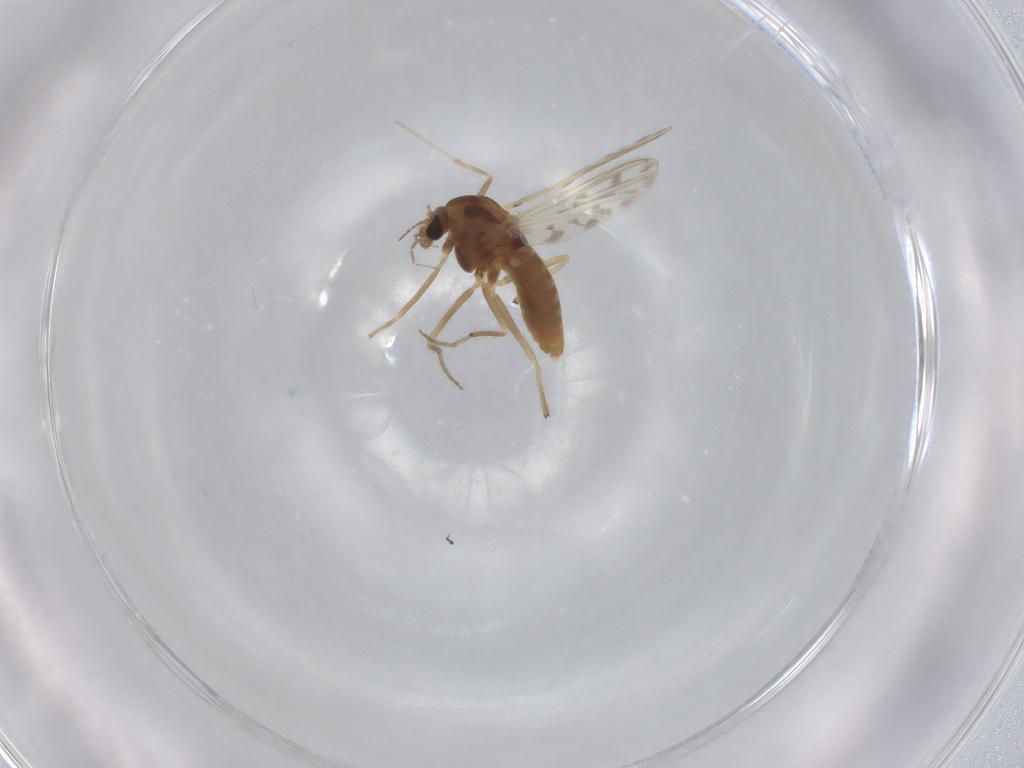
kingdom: Animalia
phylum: Arthropoda
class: Insecta
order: Diptera
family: Chironomidae
